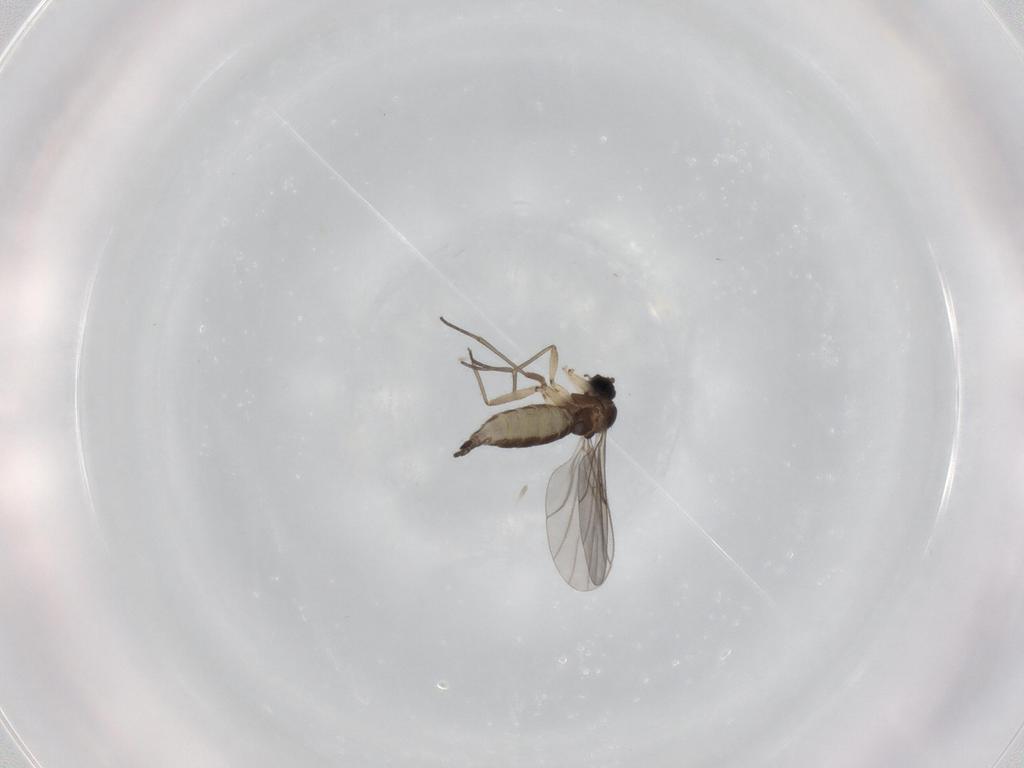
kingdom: Animalia
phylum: Arthropoda
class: Insecta
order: Diptera
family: Sciaridae
